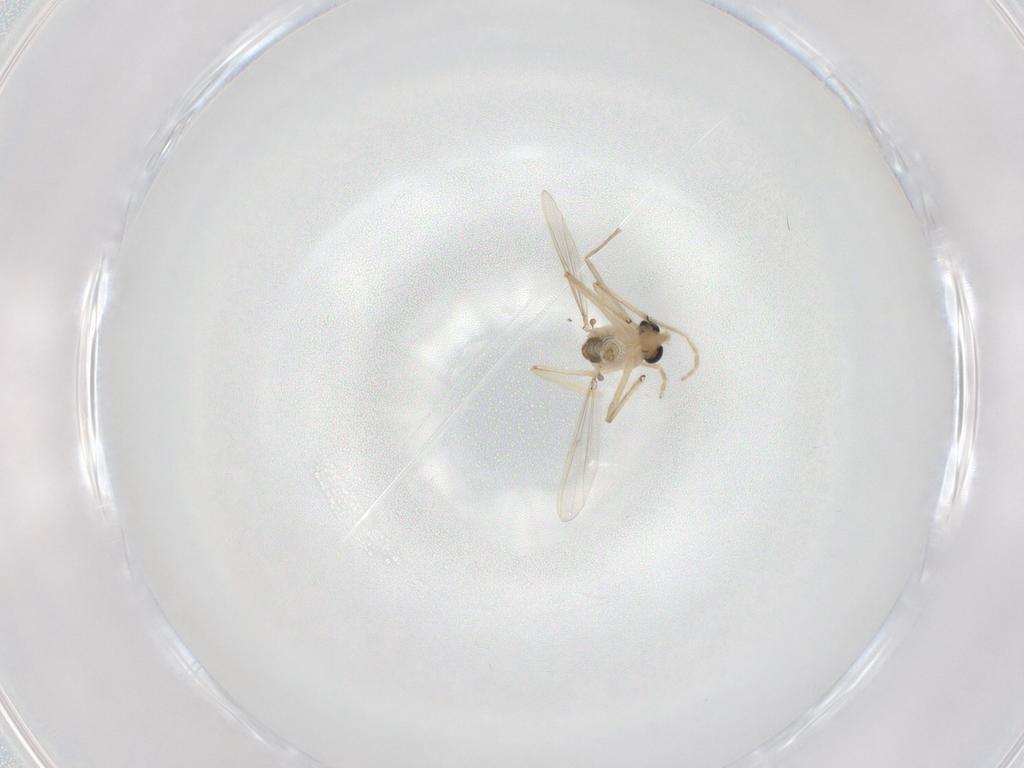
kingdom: Animalia
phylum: Arthropoda
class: Insecta
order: Diptera
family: Chironomidae
